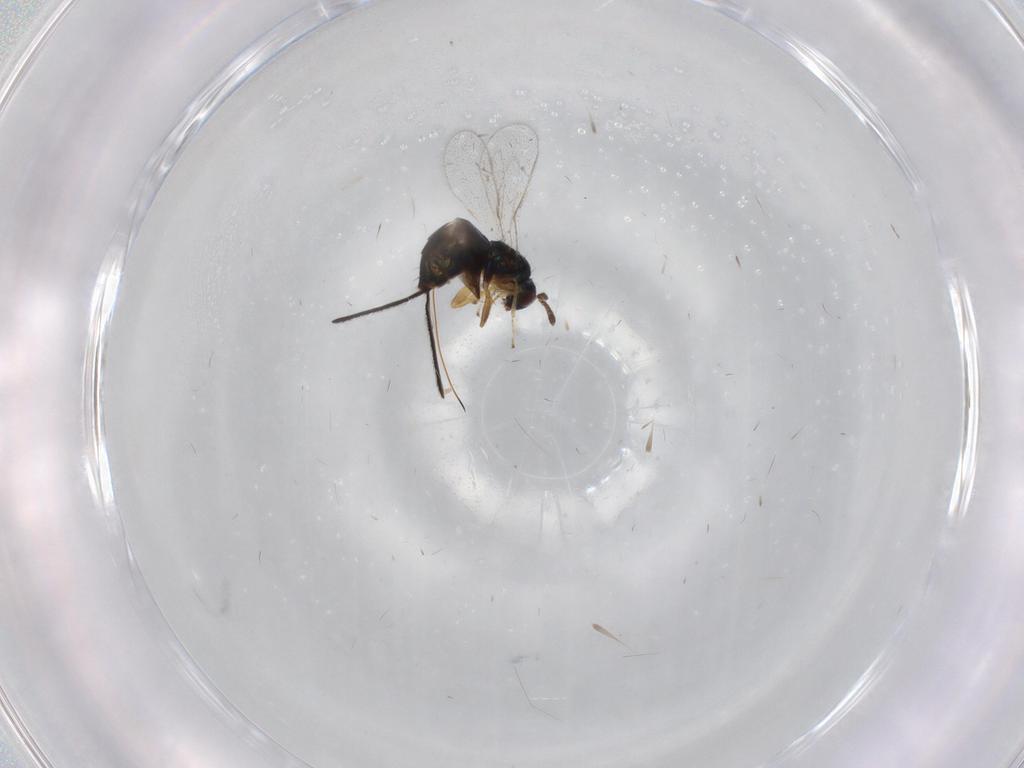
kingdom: Animalia
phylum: Arthropoda
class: Insecta
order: Hymenoptera
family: Torymidae
